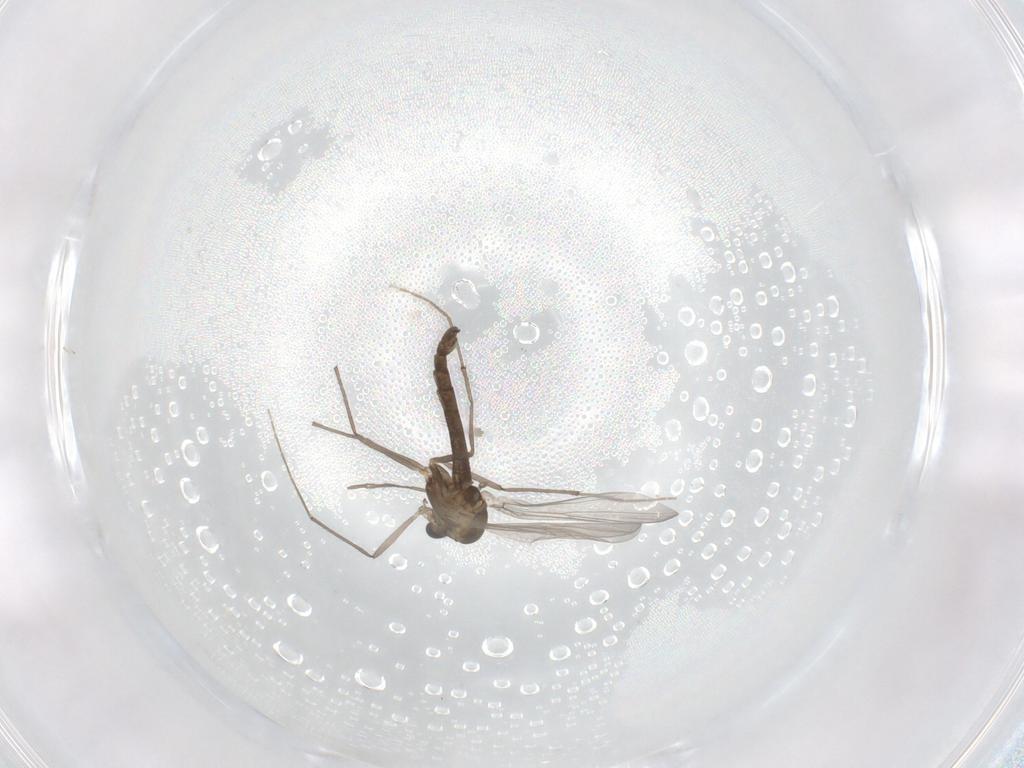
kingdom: Animalia
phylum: Arthropoda
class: Insecta
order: Diptera
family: Chironomidae
